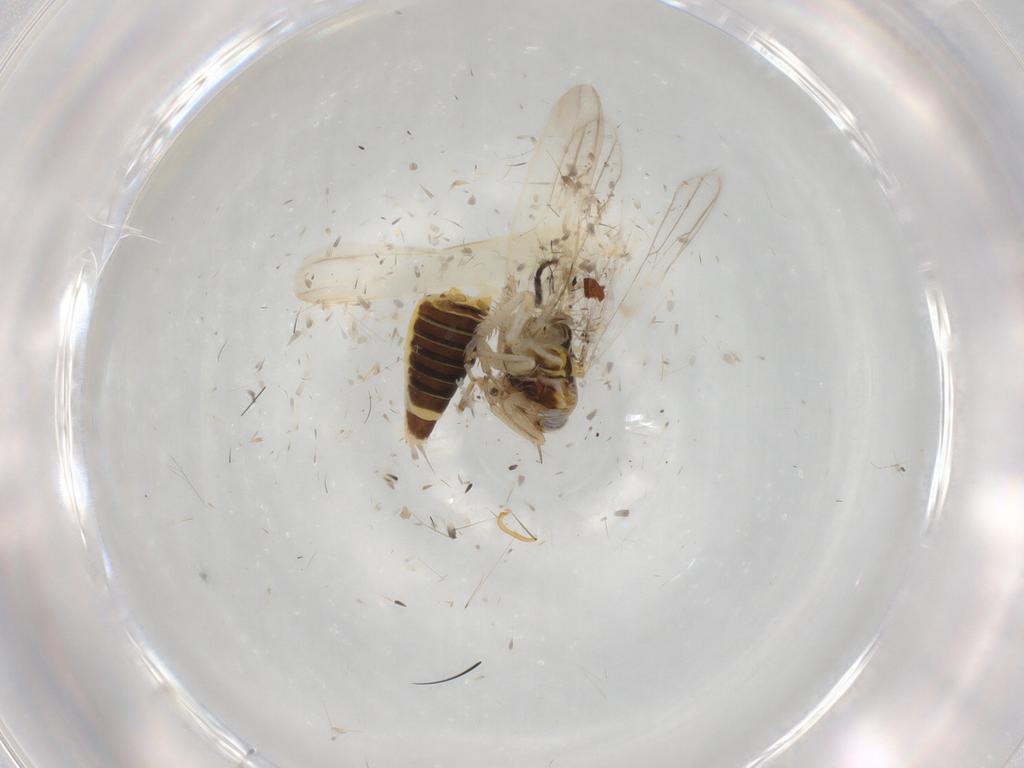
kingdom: Animalia
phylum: Arthropoda
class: Insecta
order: Hemiptera
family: Cicadellidae
